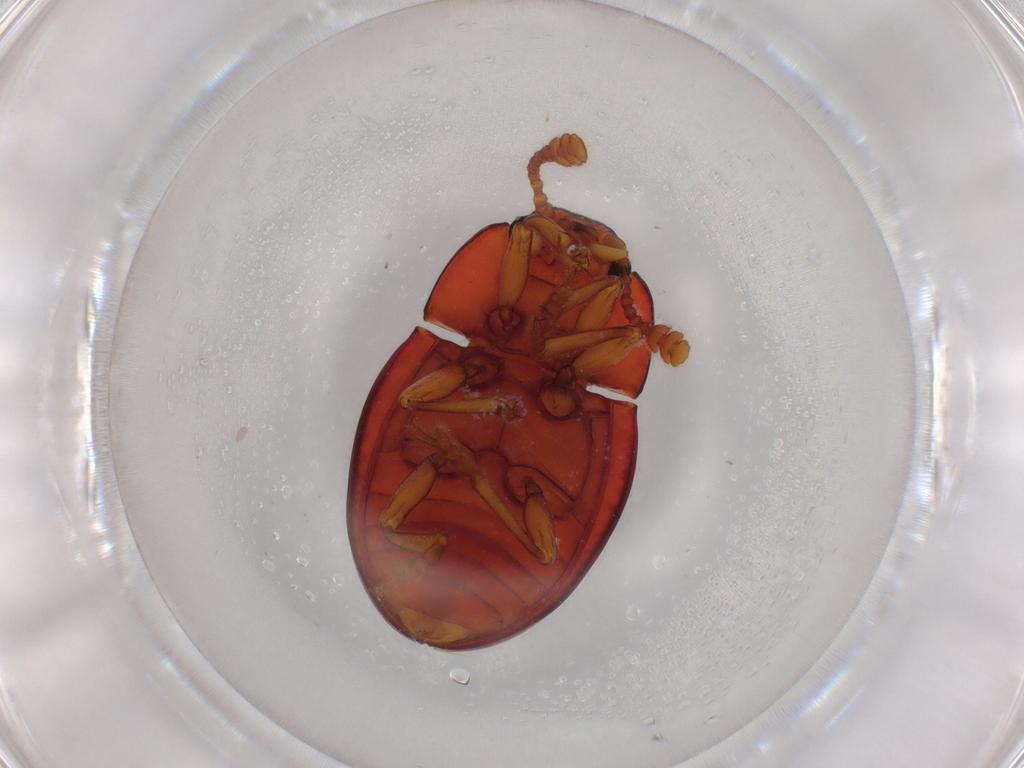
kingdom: Animalia
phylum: Arthropoda
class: Insecta
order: Coleoptera
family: Erotylidae
